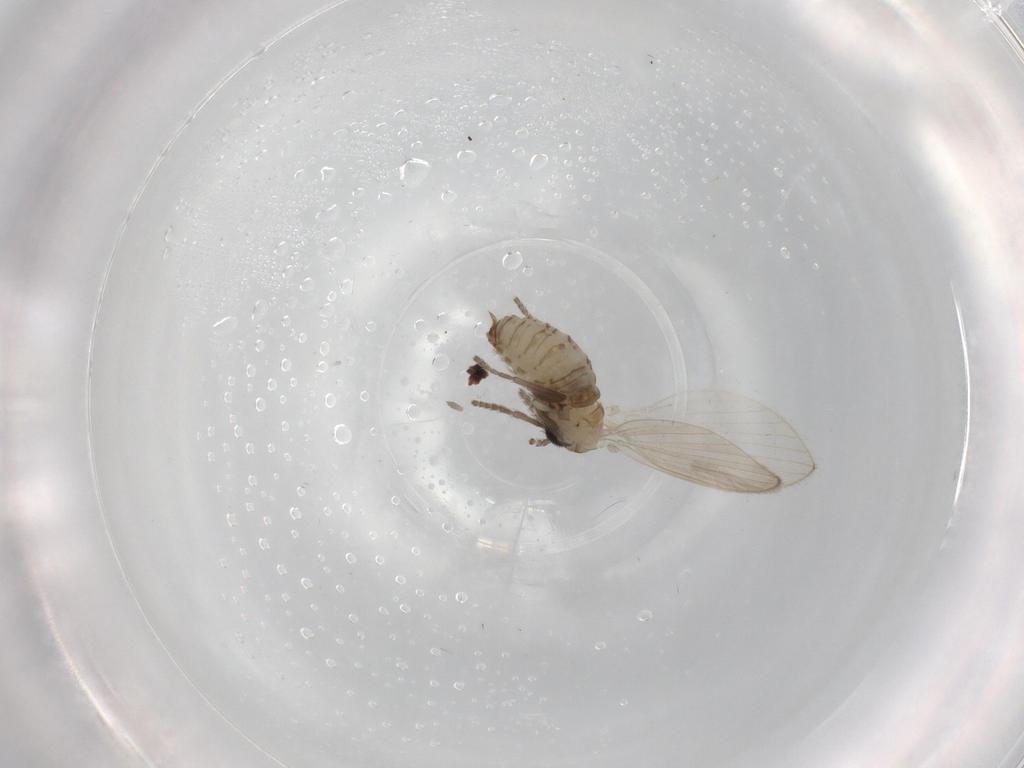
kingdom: Animalia
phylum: Arthropoda
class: Insecta
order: Diptera
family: Psychodidae
